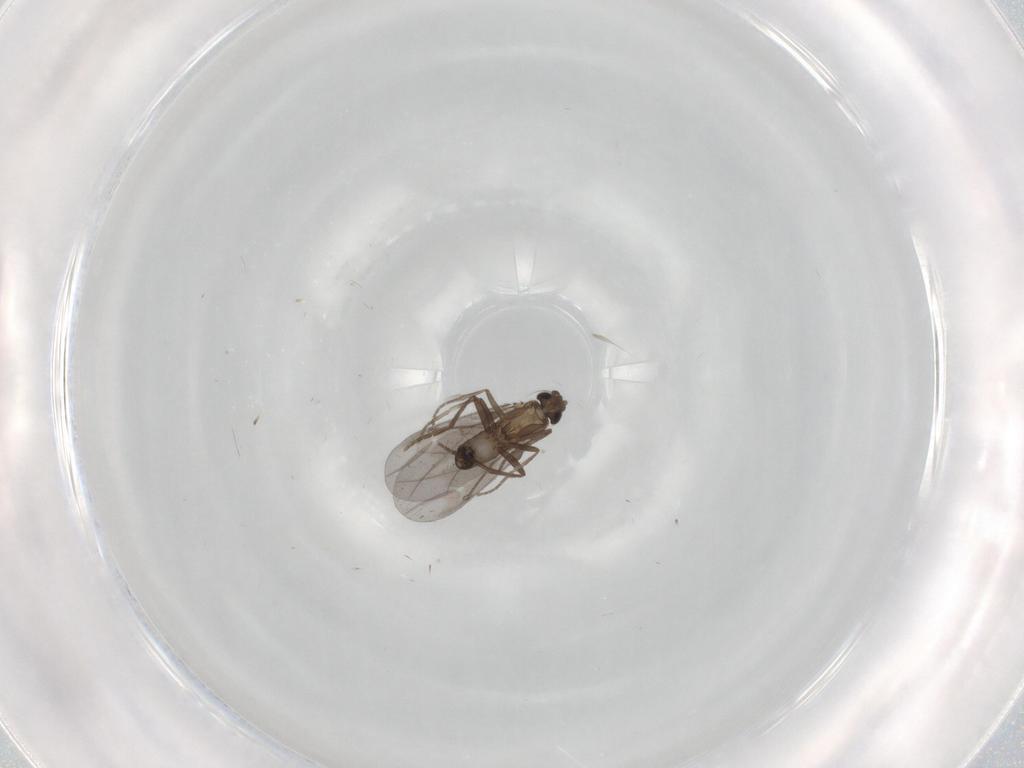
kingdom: Animalia
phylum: Arthropoda
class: Insecta
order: Diptera
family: Phoridae
